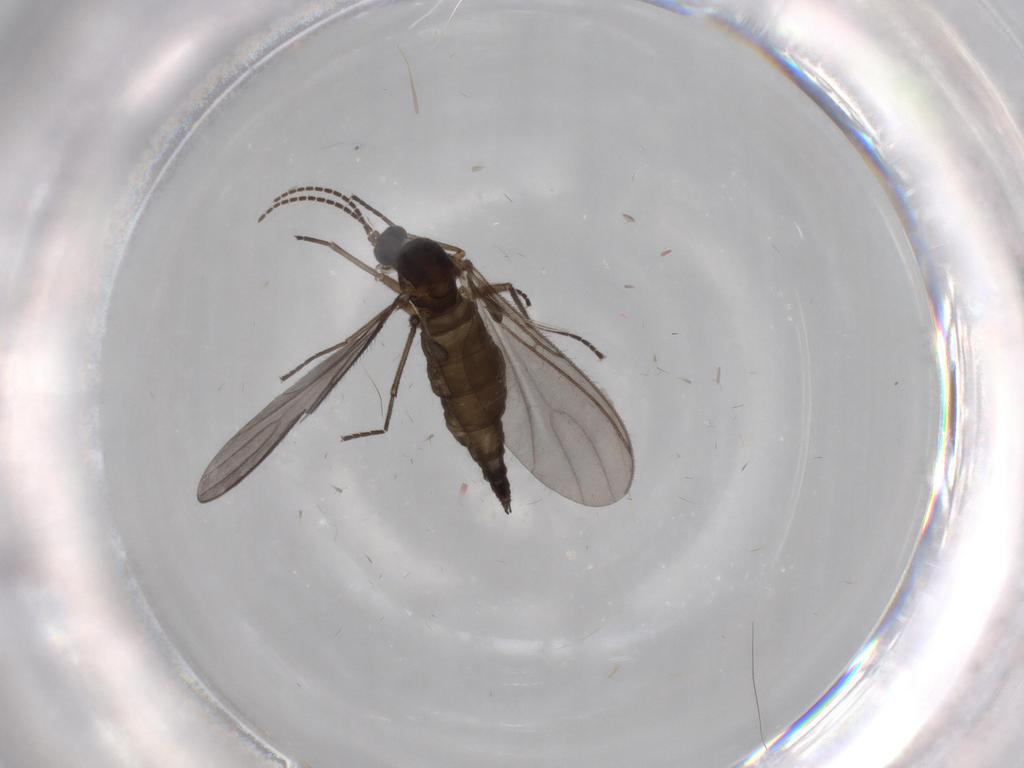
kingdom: Animalia
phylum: Arthropoda
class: Insecta
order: Diptera
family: Sciaridae
